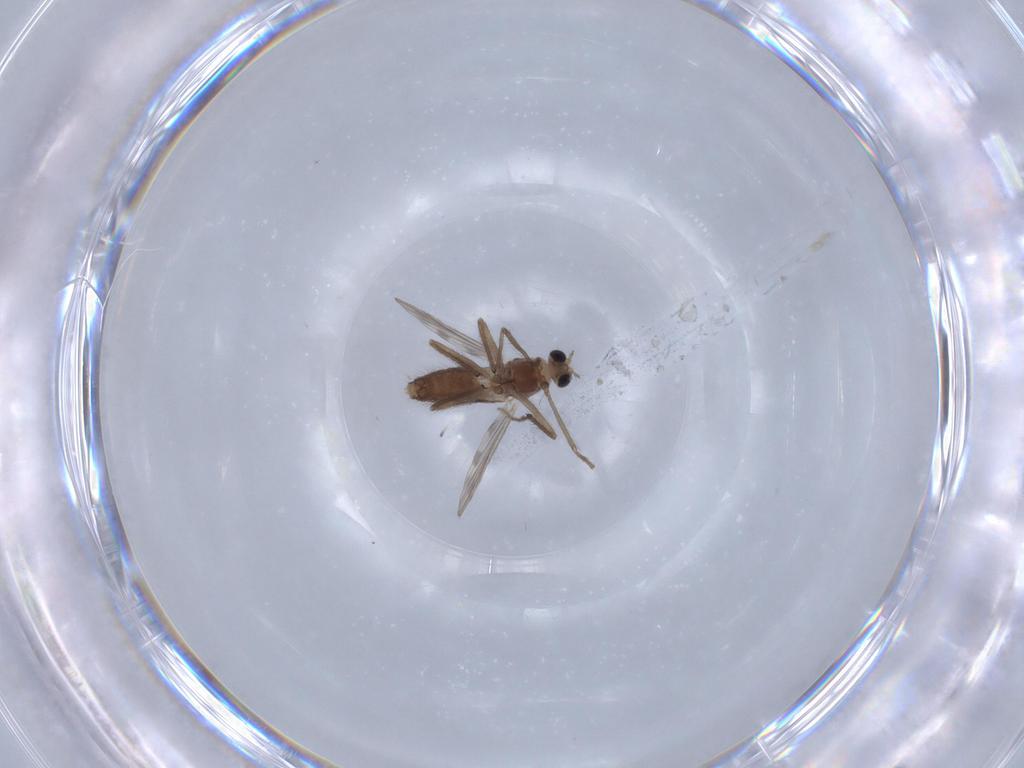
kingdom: Animalia
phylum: Arthropoda
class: Insecta
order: Diptera
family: Chironomidae
